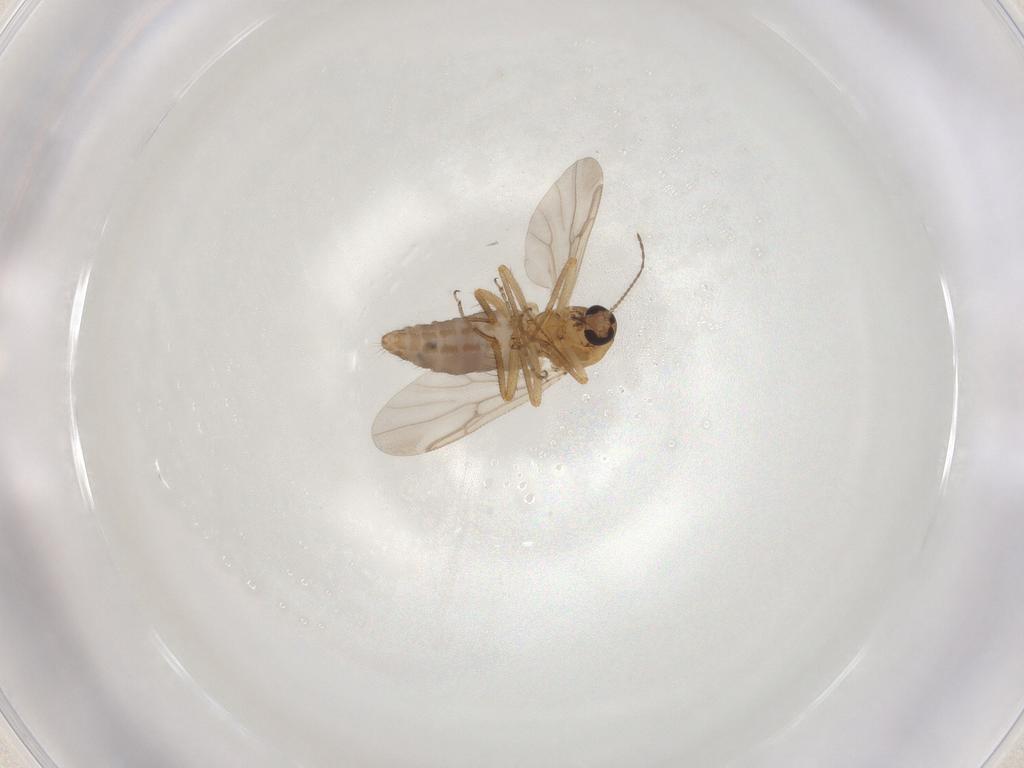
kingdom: Animalia
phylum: Arthropoda
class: Insecta
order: Diptera
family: Ceratopogonidae
